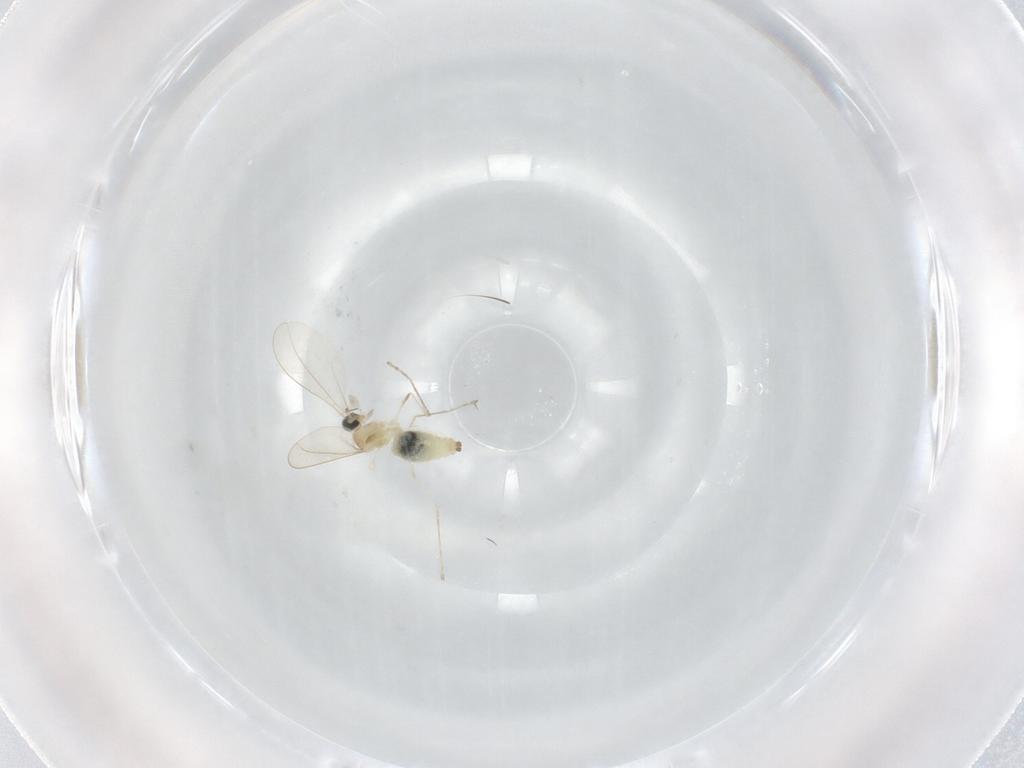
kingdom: Animalia
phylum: Arthropoda
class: Insecta
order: Diptera
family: Cecidomyiidae
